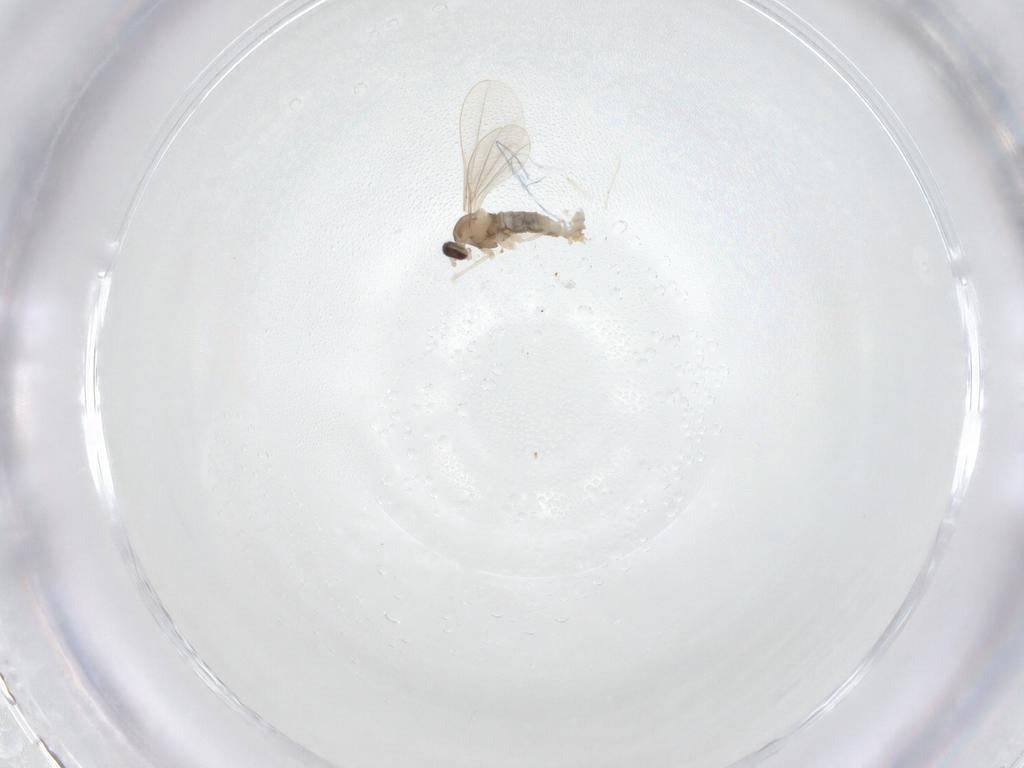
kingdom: Animalia
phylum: Arthropoda
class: Insecta
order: Diptera
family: Cecidomyiidae
